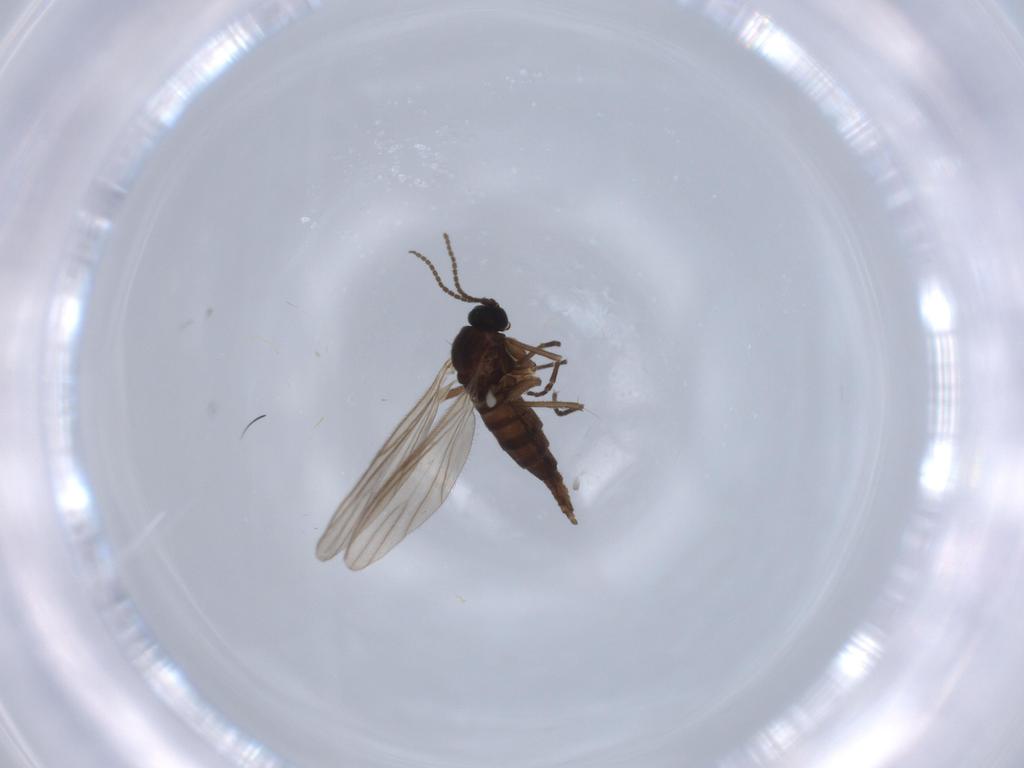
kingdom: Animalia
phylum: Arthropoda
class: Insecta
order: Diptera
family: Sciaridae
